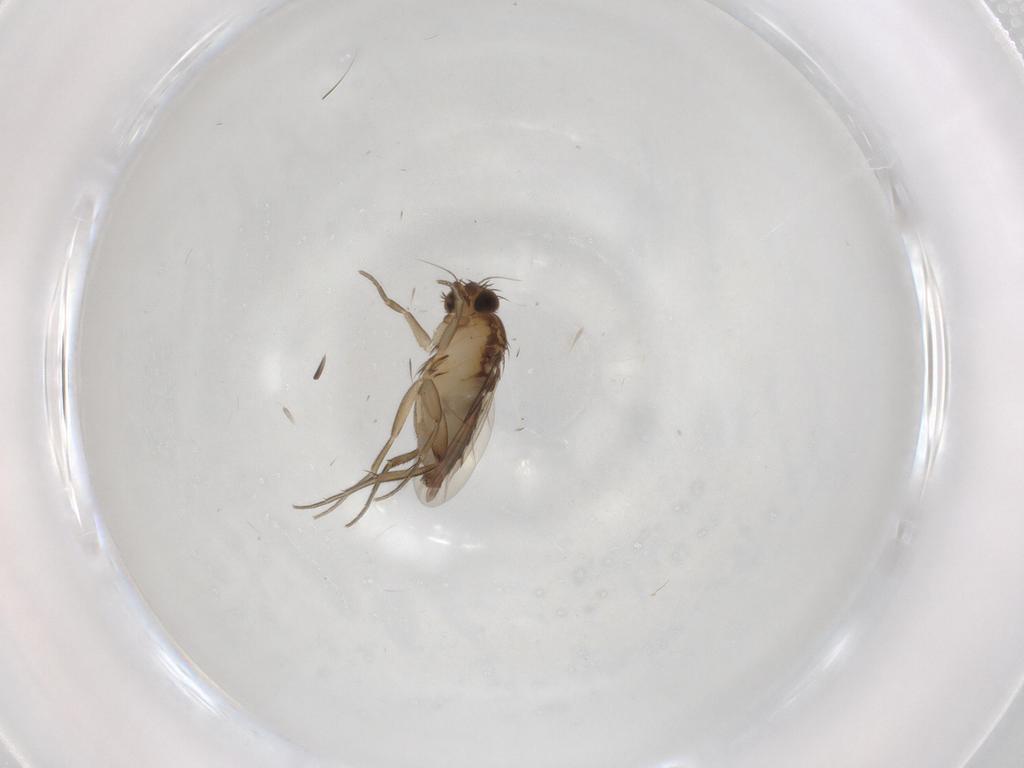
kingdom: Animalia
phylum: Arthropoda
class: Insecta
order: Diptera
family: Phoridae
